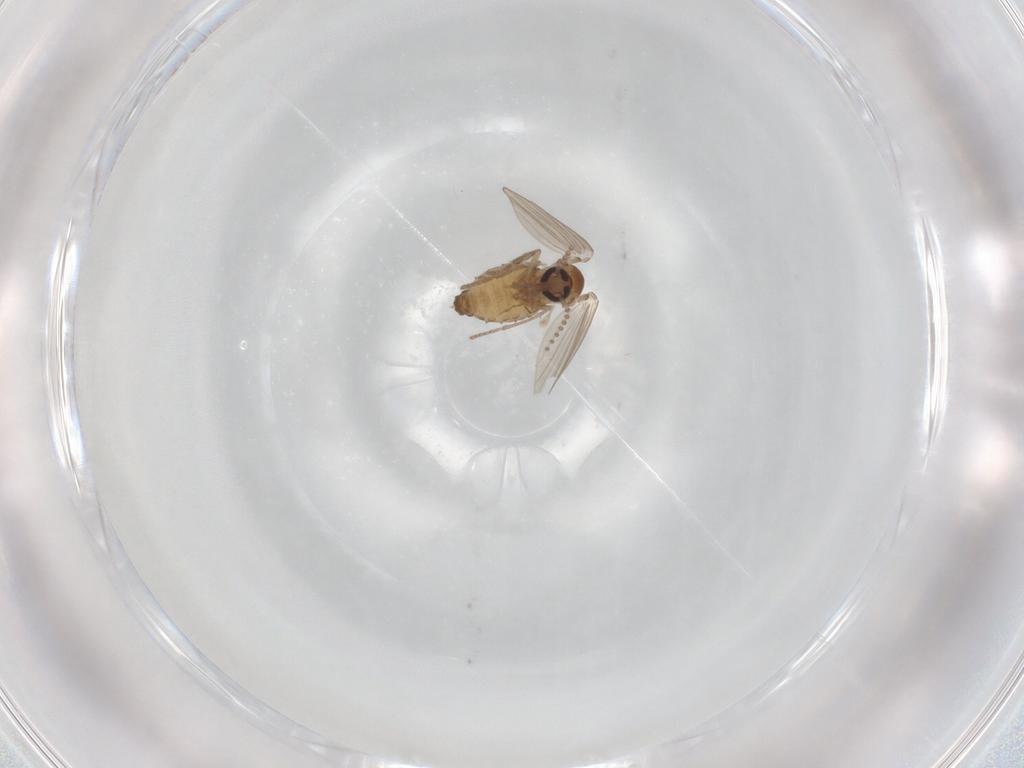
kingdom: Animalia
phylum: Arthropoda
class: Insecta
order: Diptera
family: Psychodidae
